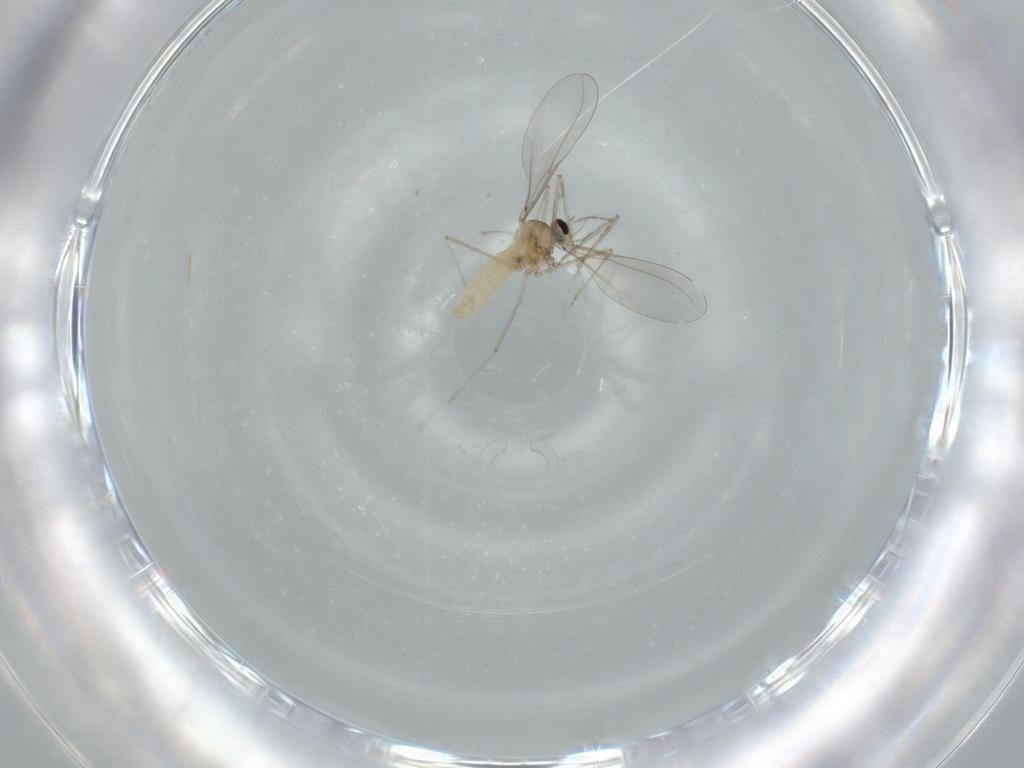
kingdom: Animalia
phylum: Arthropoda
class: Insecta
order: Diptera
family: Cecidomyiidae
